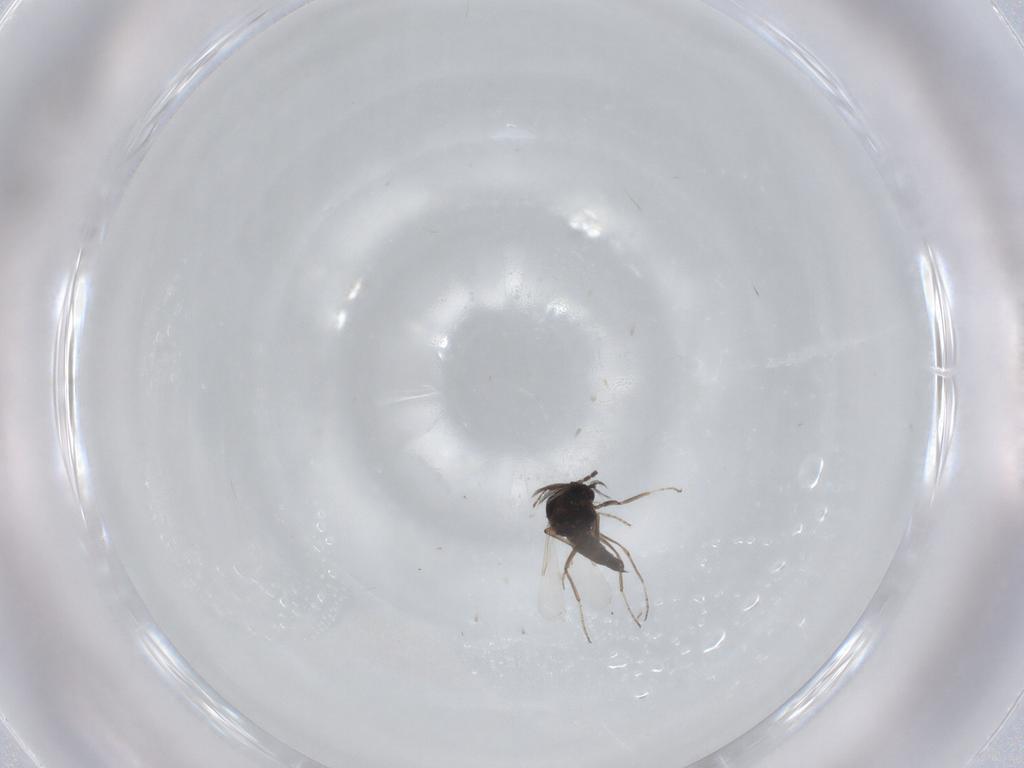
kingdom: Animalia
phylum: Arthropoda
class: Insecta
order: Diptera
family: Ceratopogonidae
